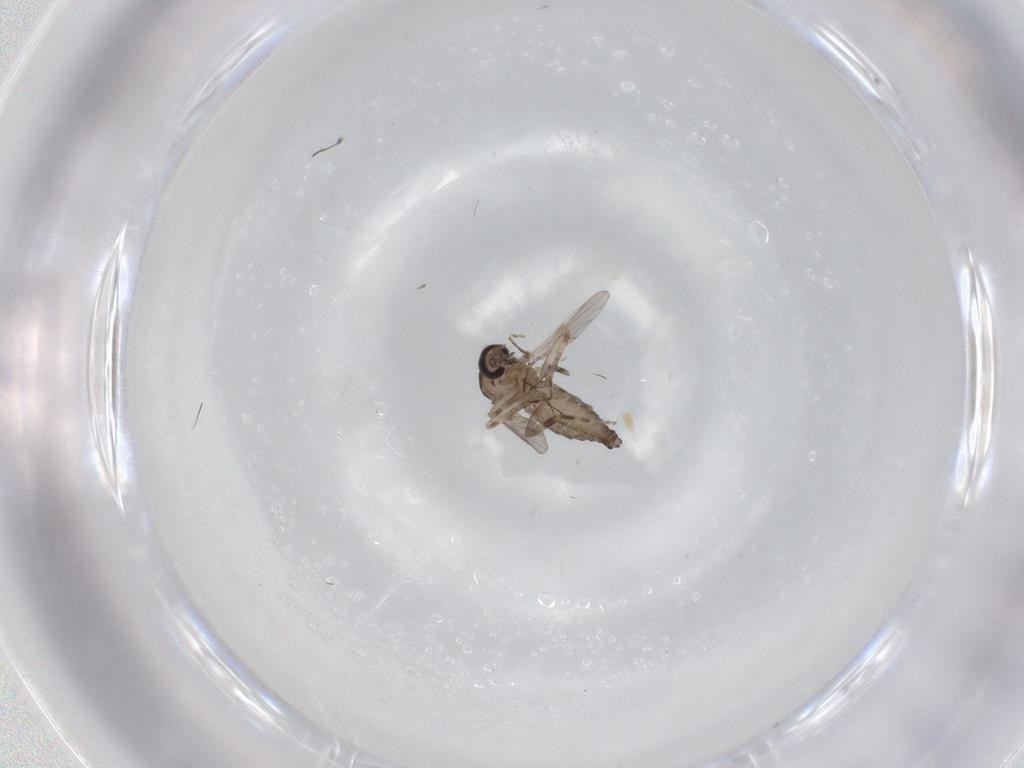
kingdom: Animalia
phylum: Arthropoda
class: Insecta
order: Diptera
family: Ceratopogonidae
